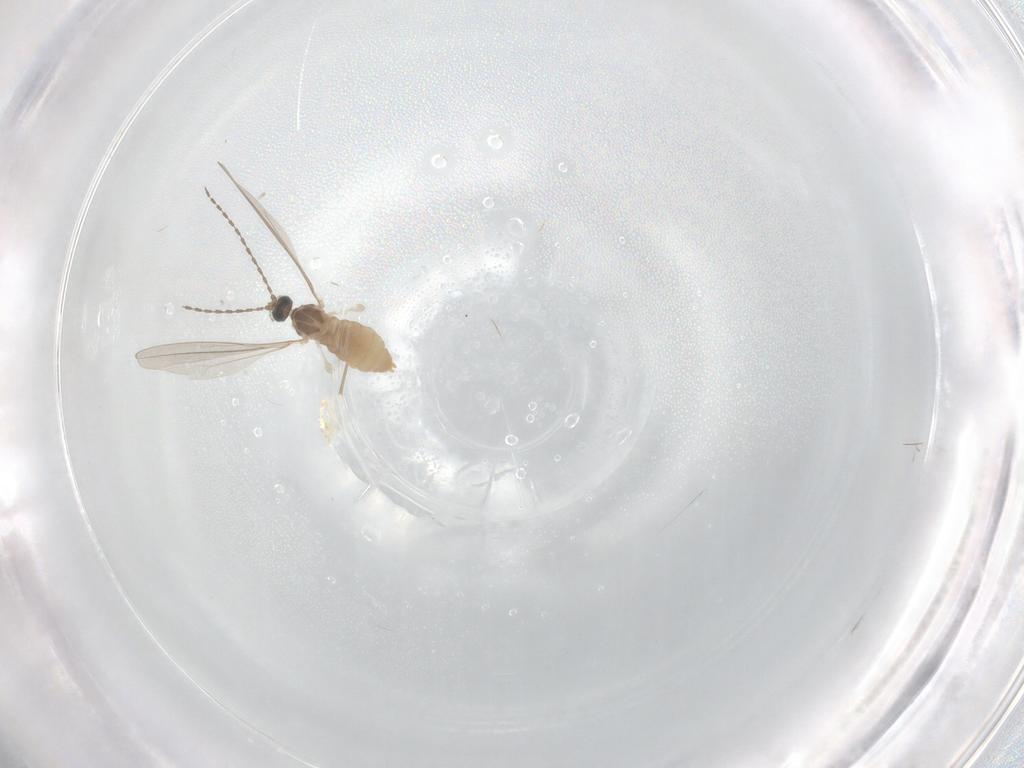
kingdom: Animalia
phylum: Arthropoda
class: Insecta
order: Diptera
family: Cecidomyiidae
